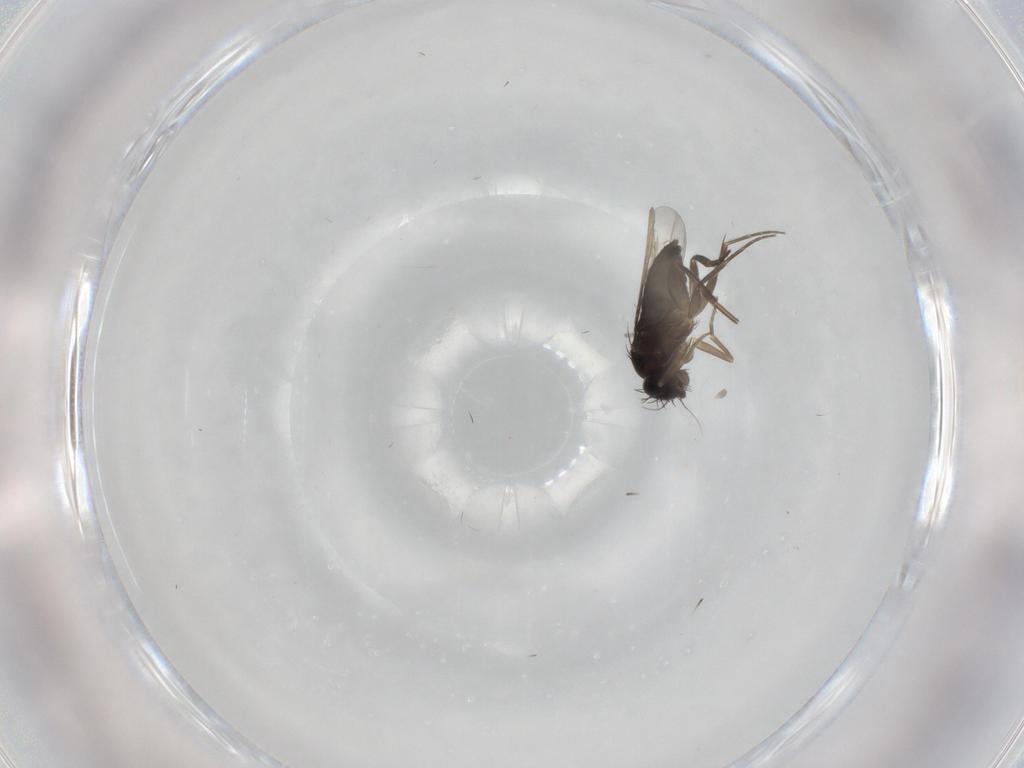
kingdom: Animalia
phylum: Arthropoda
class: Insecta
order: Diptera
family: Phoridae
